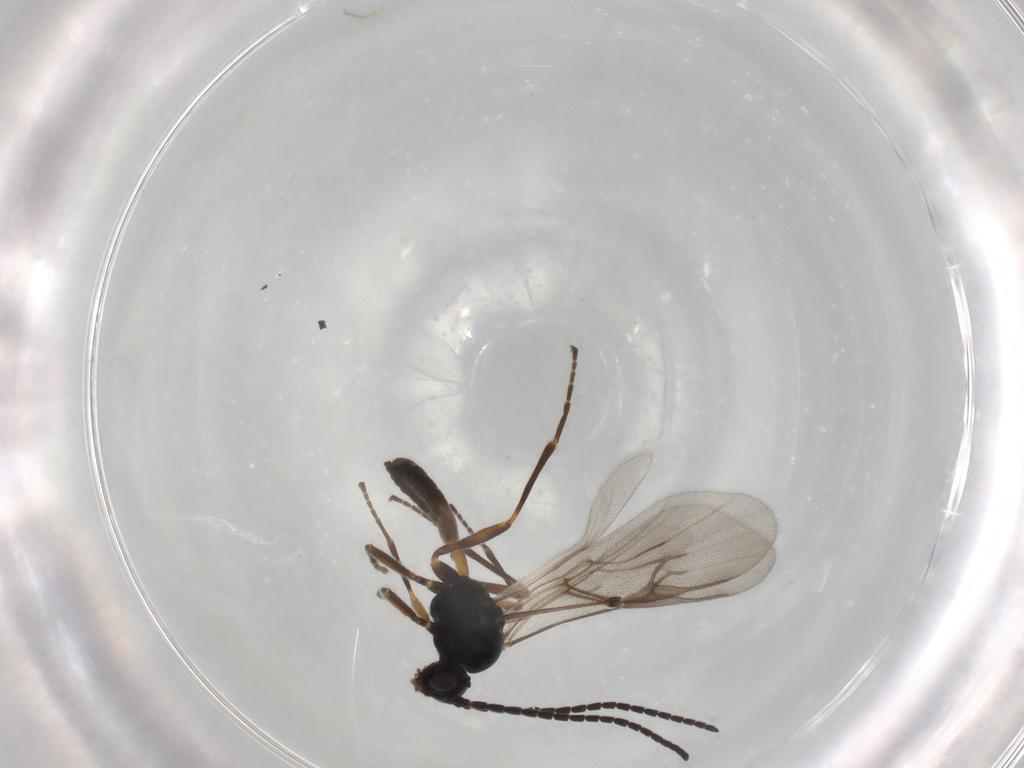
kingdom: Animalia
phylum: Arthropoda
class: Insecta
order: Hymenoptera
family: Braconidae
